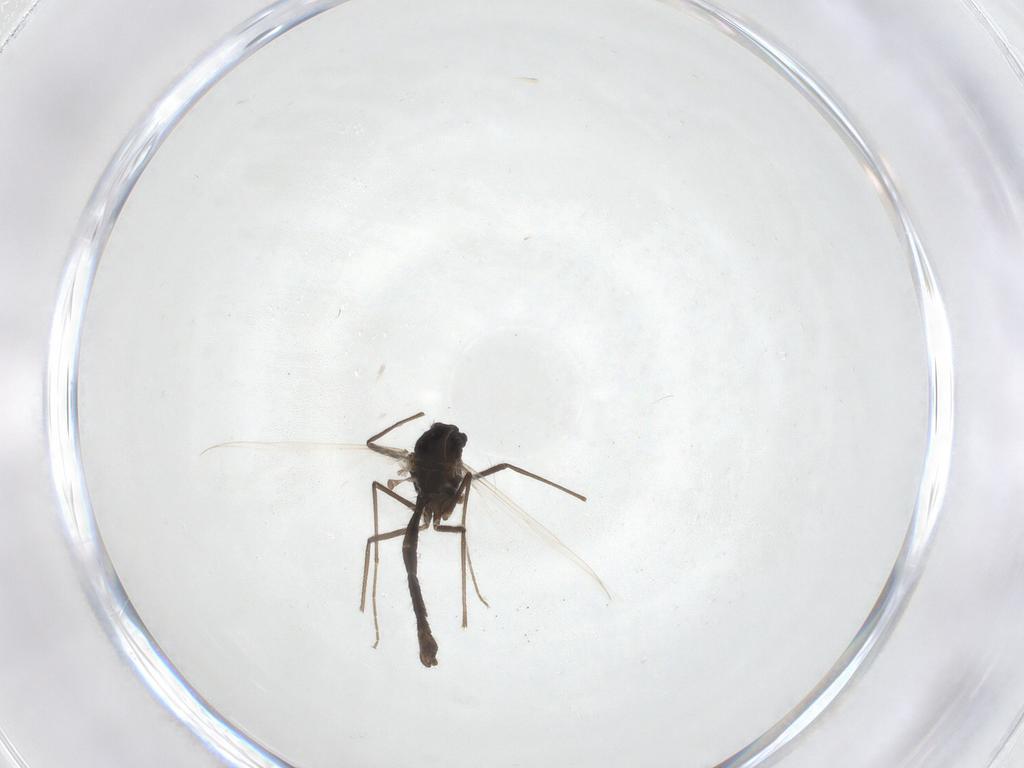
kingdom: Animalia
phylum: Arthropoda
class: Insecta
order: Diptera
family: Chironomidae
